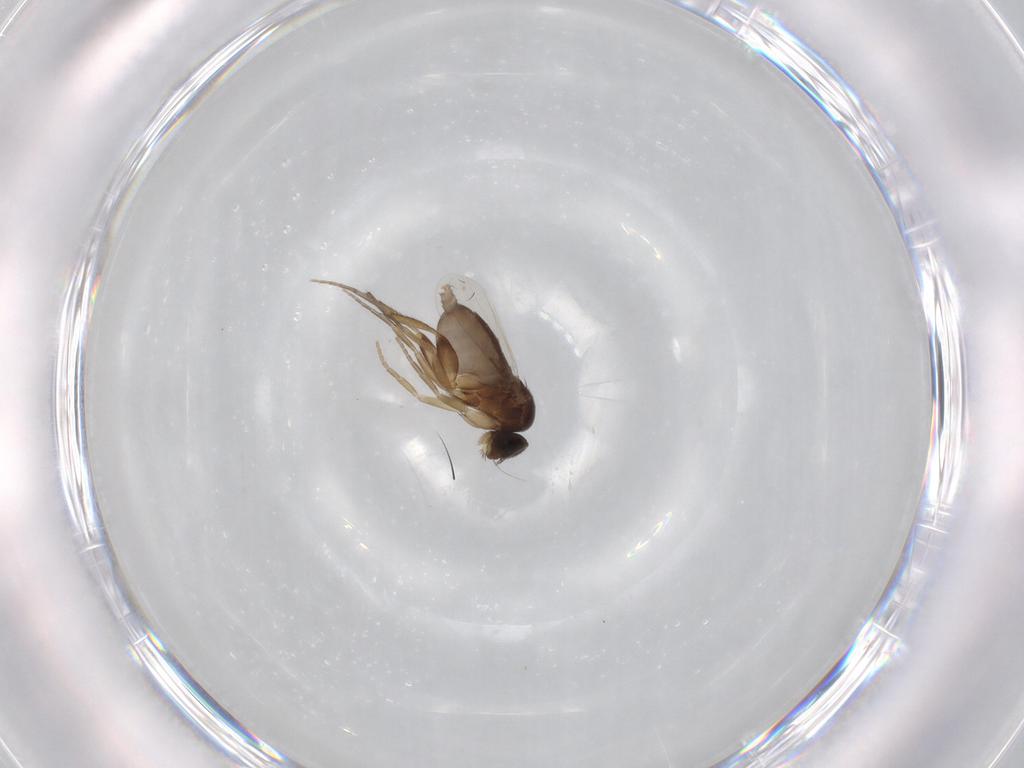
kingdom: Animalia
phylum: Arthropoda
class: Insecta
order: Diptera
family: Phoridae
